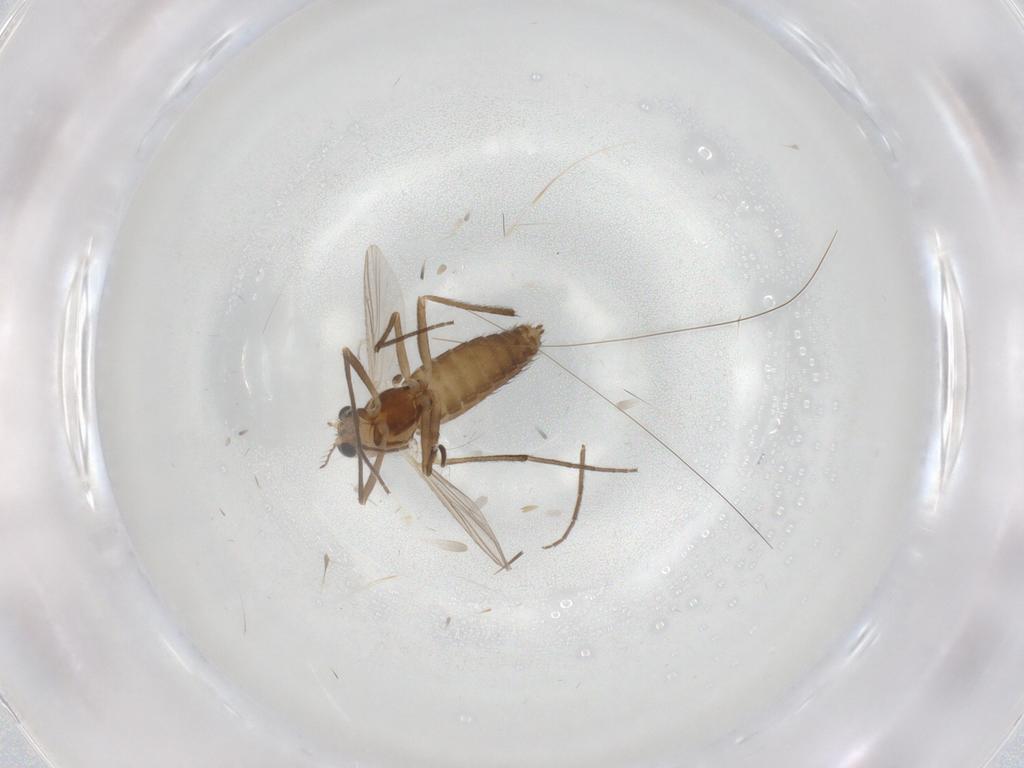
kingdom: Animalia
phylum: Arthropoda
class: Insecta
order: Diptera
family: Chironomidae
